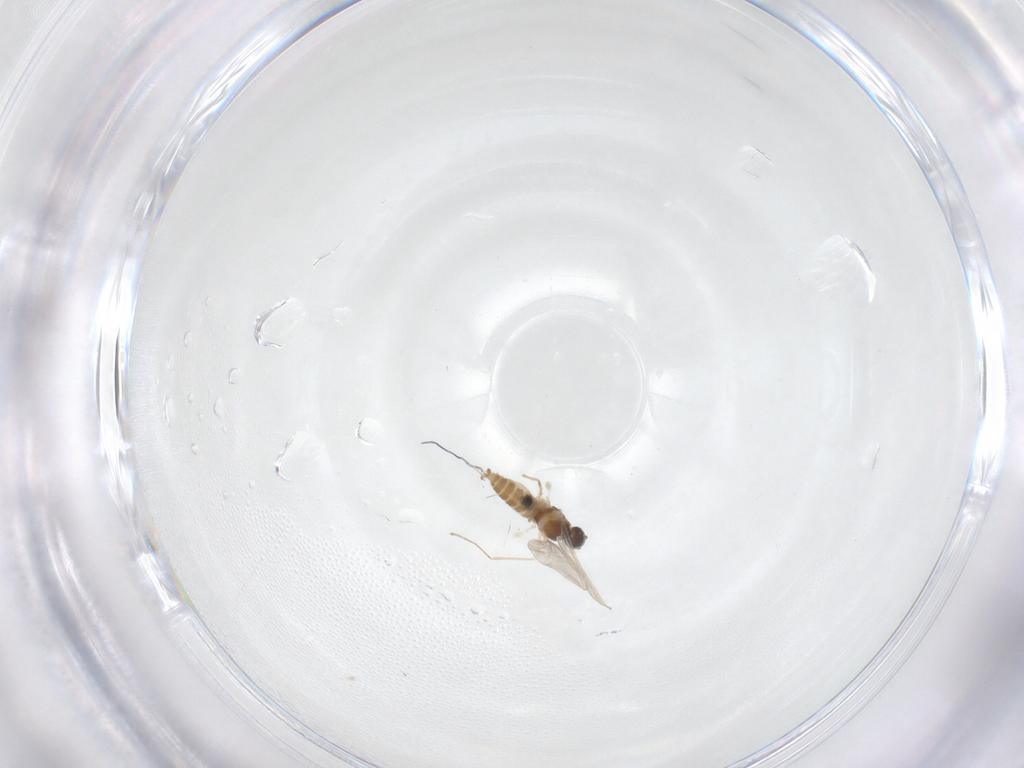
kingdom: Animalia
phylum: Arthropoda
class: Insecta
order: Diptera
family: Cecidomyiidae
